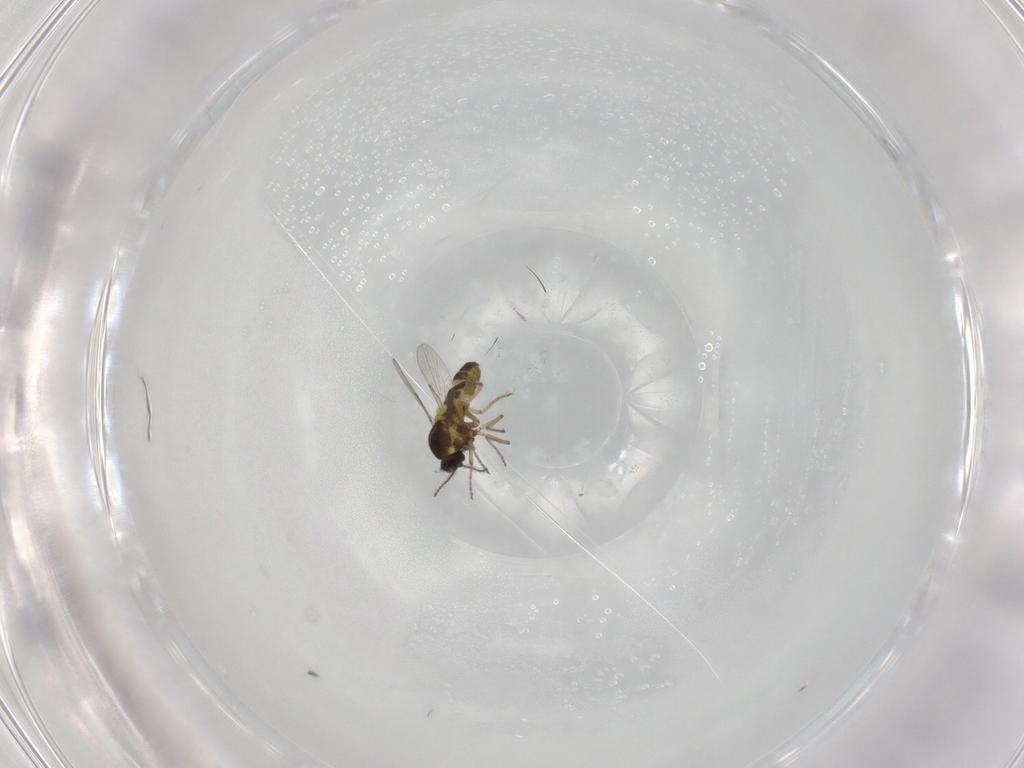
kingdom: Animalia
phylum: Arthropoda
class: Insecta
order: Diptera
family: Ceratopogonidae
